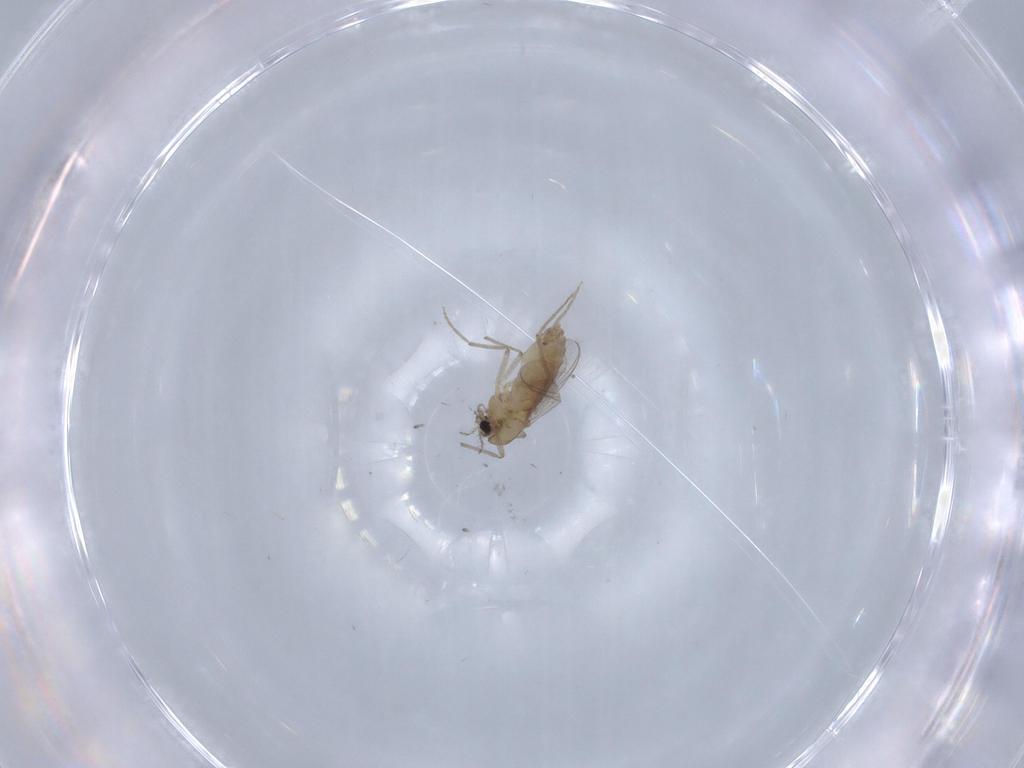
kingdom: Animalia
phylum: Arthropoda
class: Insecta
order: Diptera
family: Chironomidae
